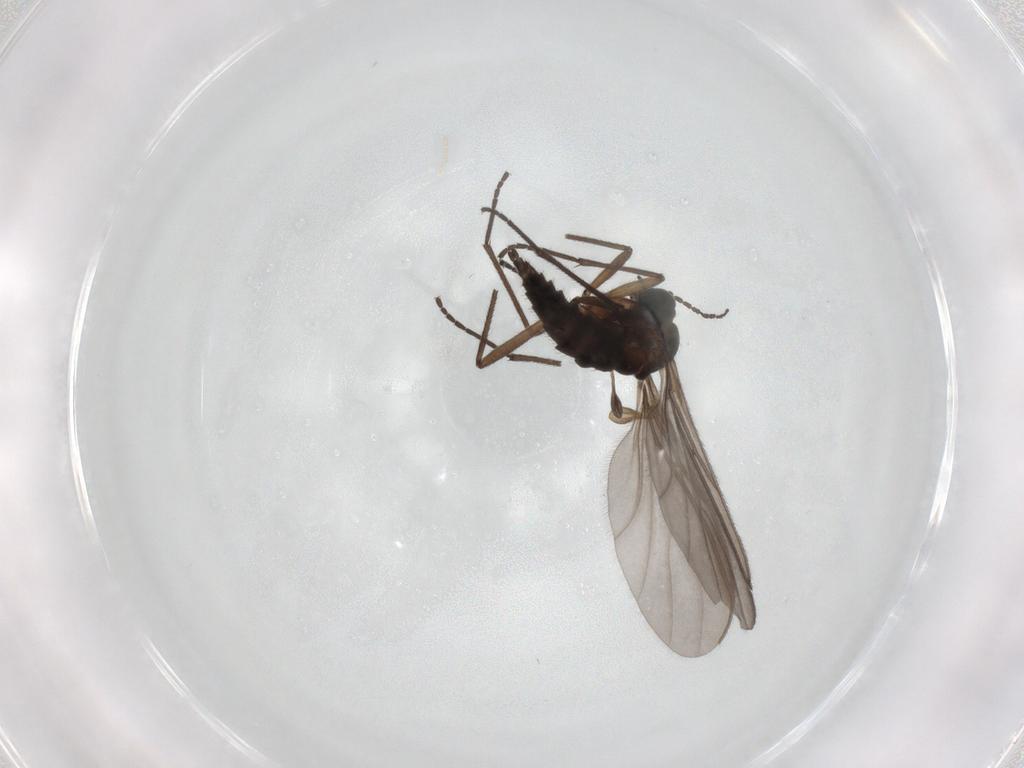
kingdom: Animalia
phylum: Arthropoda
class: Insecta
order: Diptera
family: Ditomyiidae
